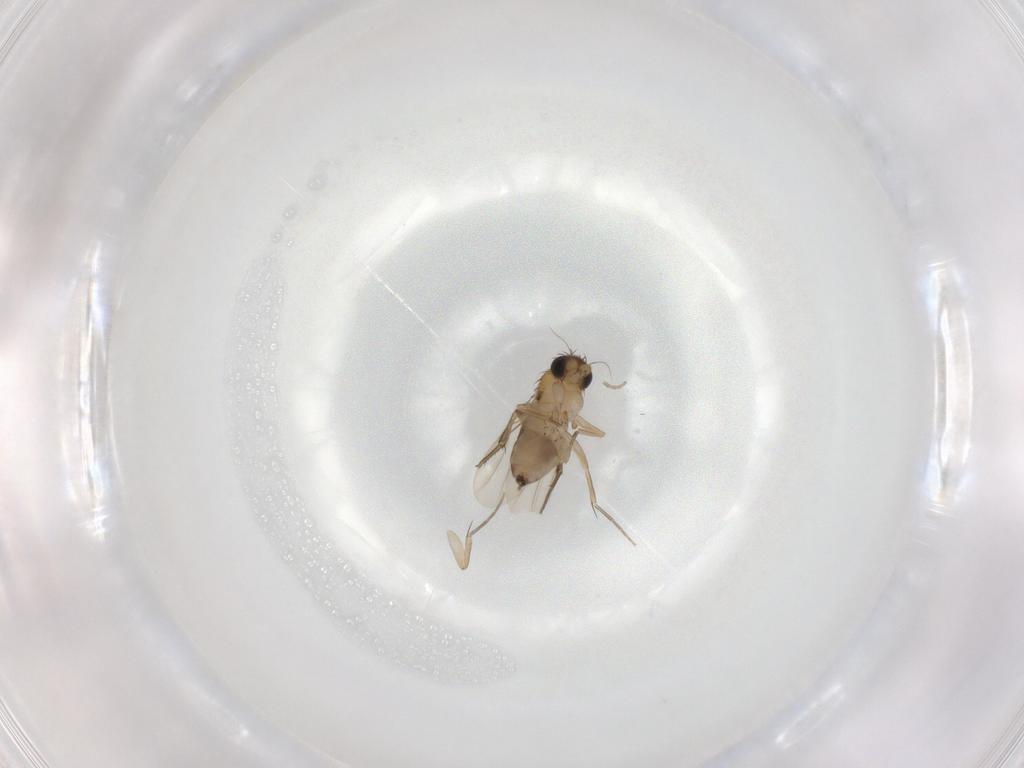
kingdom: Animalia
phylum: Arthropoda
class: Insecta
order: Diptera
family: Phoridae
